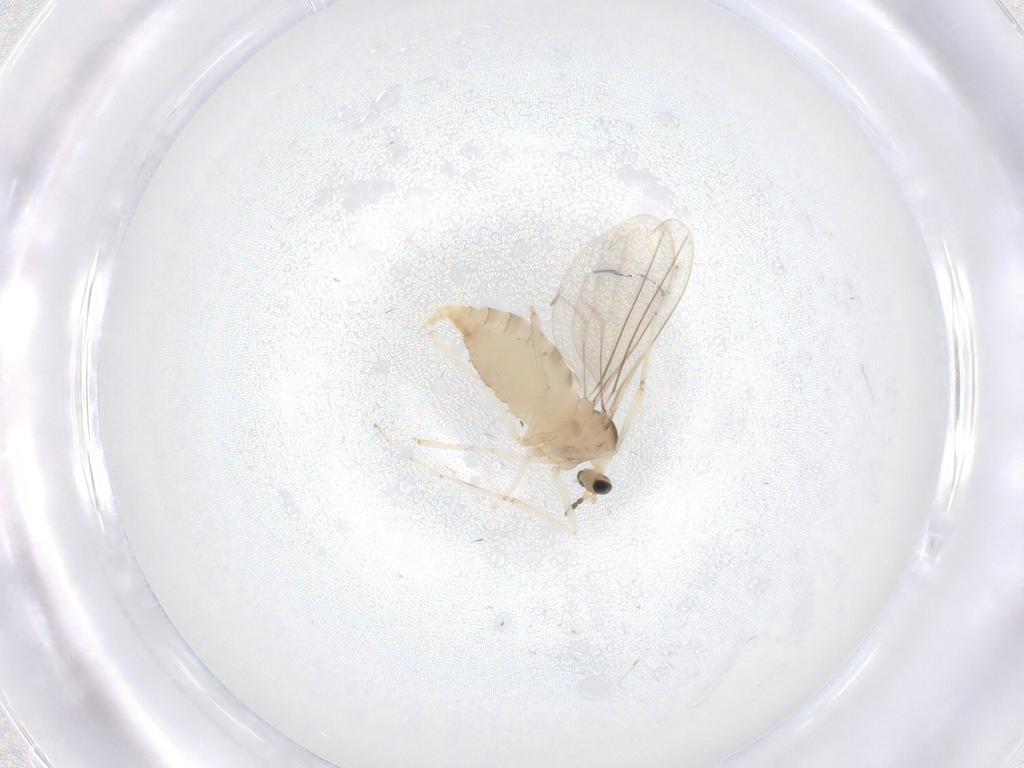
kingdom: Animalia
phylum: Arthropoda
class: Insecta
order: Diptera
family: Cecidomyiidae
